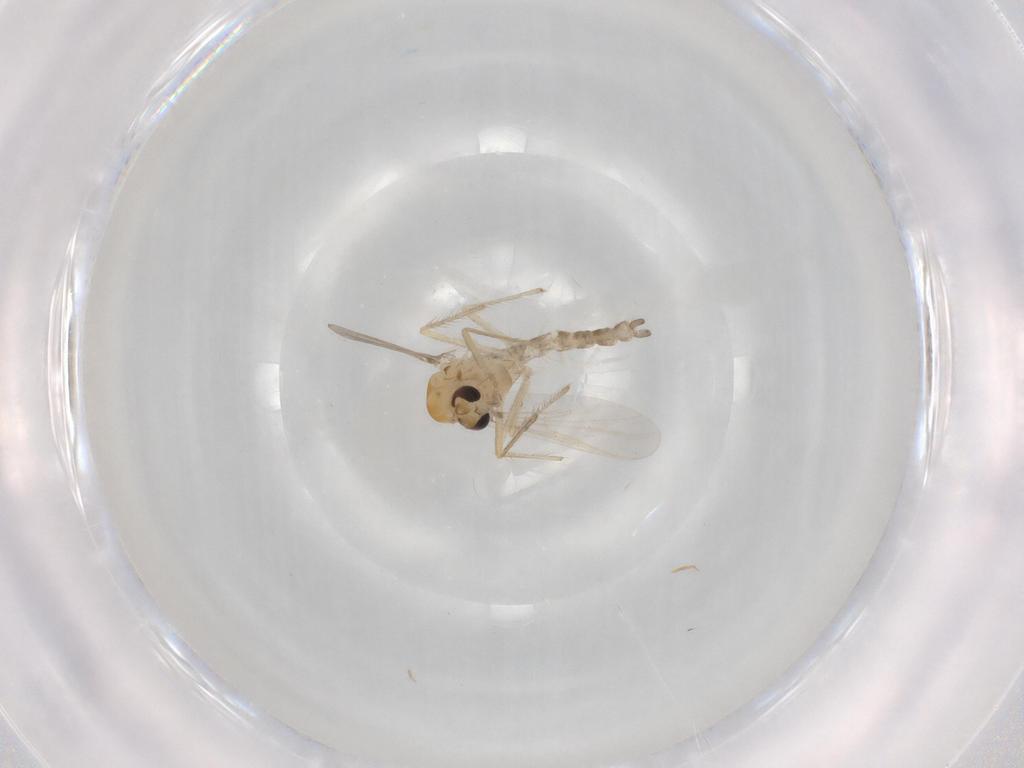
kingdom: Animalia
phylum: Arthropoda
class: Insecta
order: Diptera
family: Chironomidae
